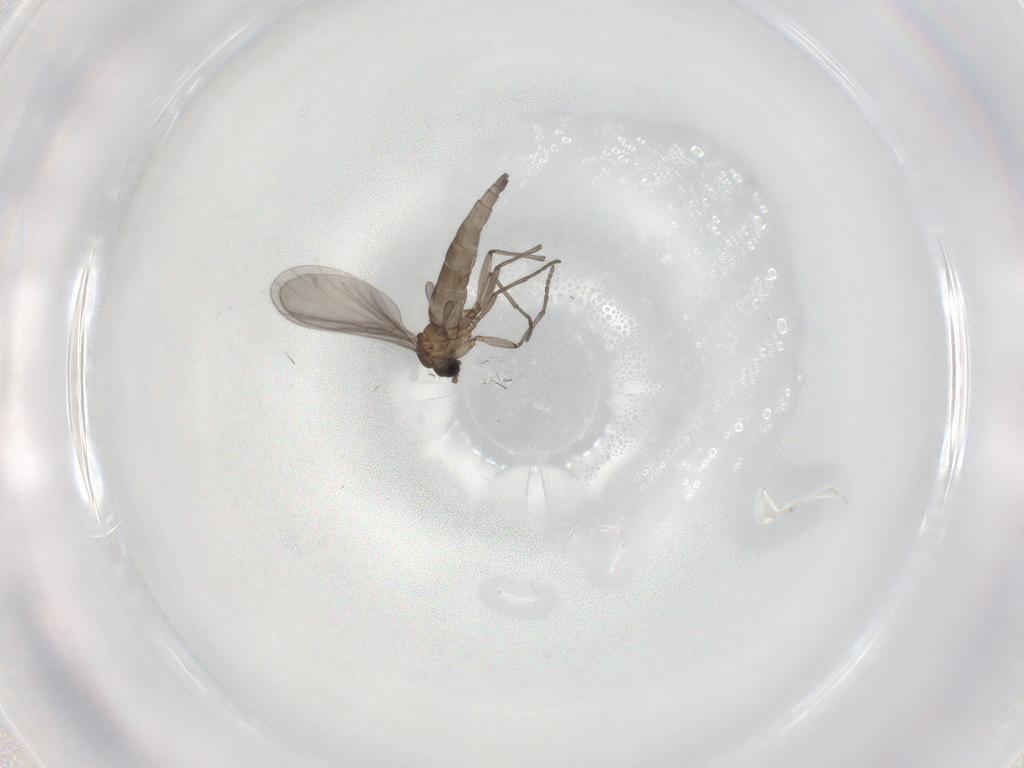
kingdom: Animalia
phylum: Arthropoda
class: Insecta
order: Diptera
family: Sciaridae
